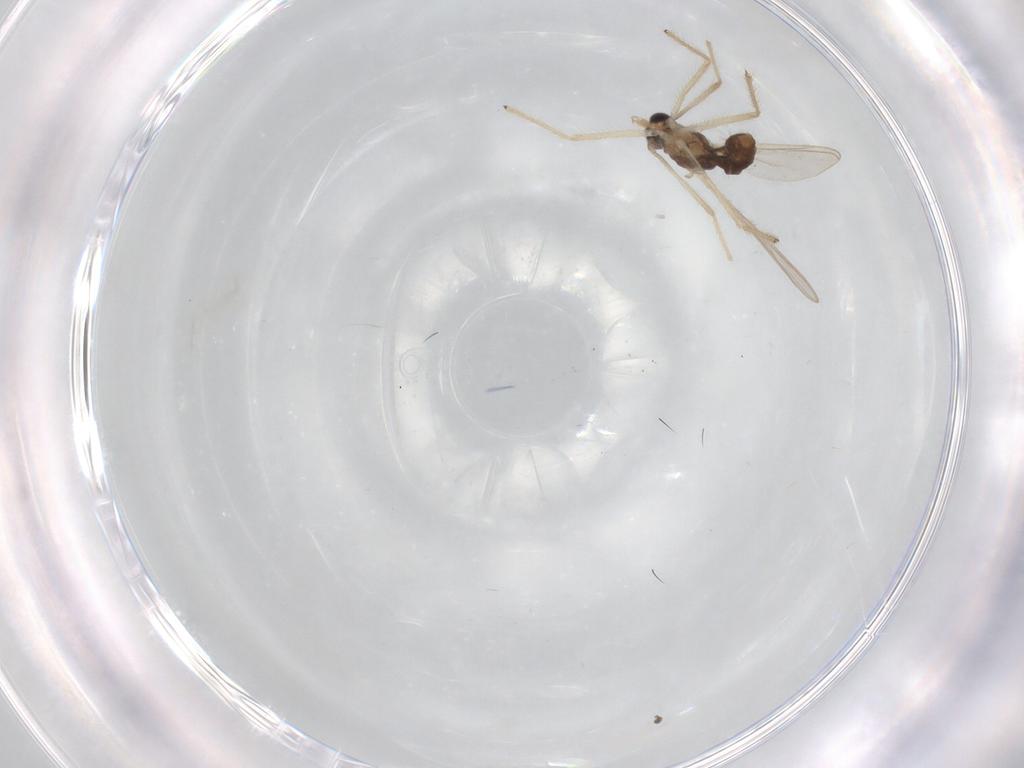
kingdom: Animalia
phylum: Arthropoda
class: Insecta
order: Diptera
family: Chironomidae
